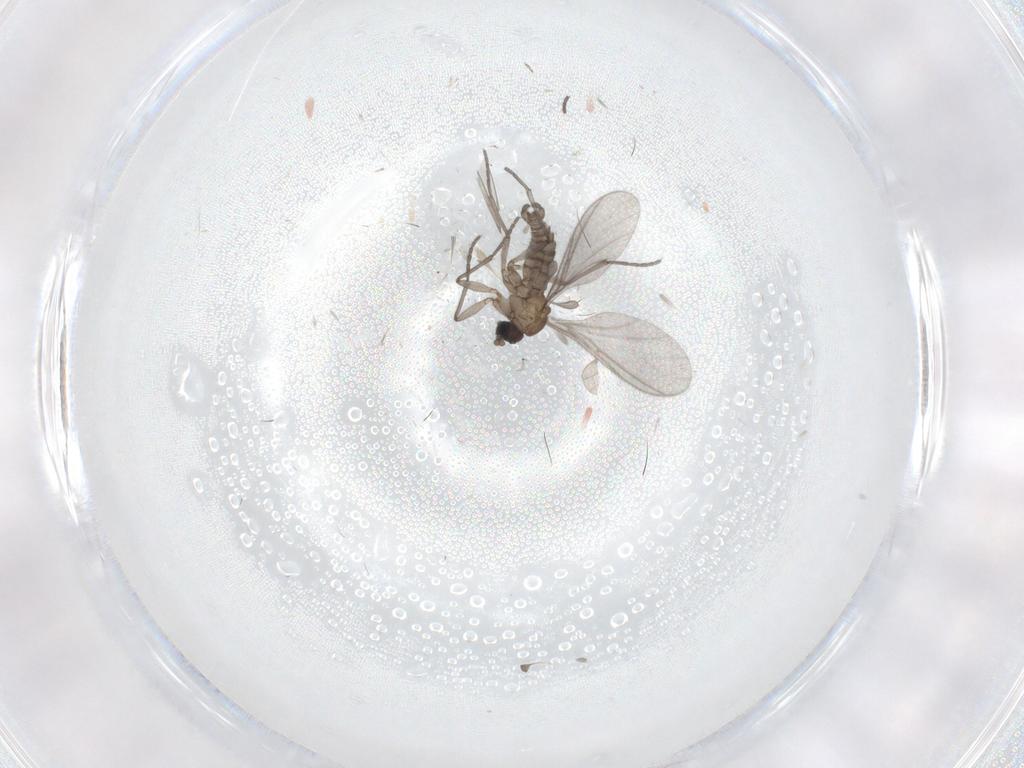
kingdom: Animalia
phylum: Arthropoda
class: Insecta
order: Diptera
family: Sciaridae
